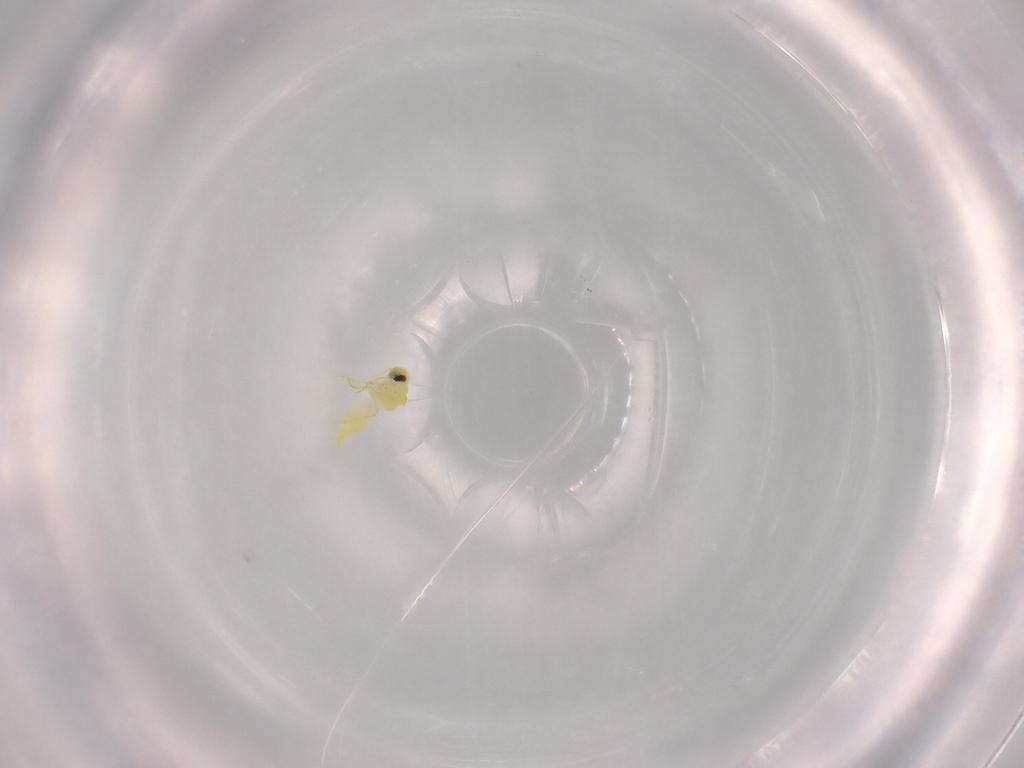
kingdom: Animalia
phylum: Arthropoda
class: Insecta
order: Hemiptera
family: Aleyrodidae
